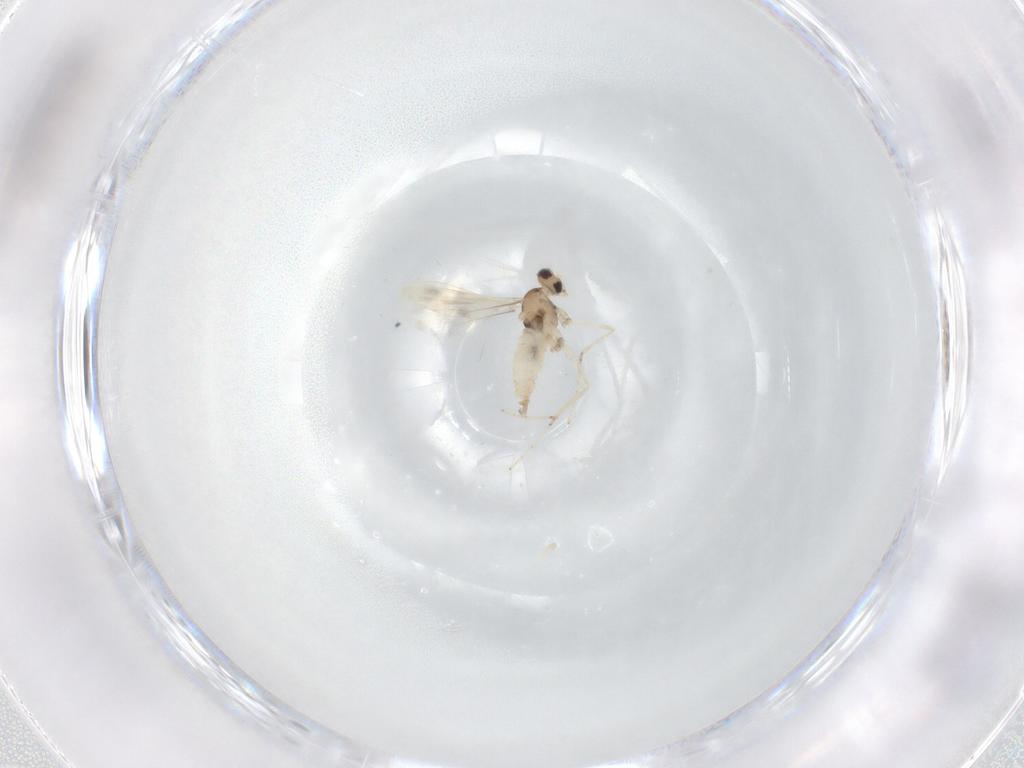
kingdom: Animalia
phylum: Arthropoda
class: Insecta
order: Diptera
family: Cecidomyiidae
